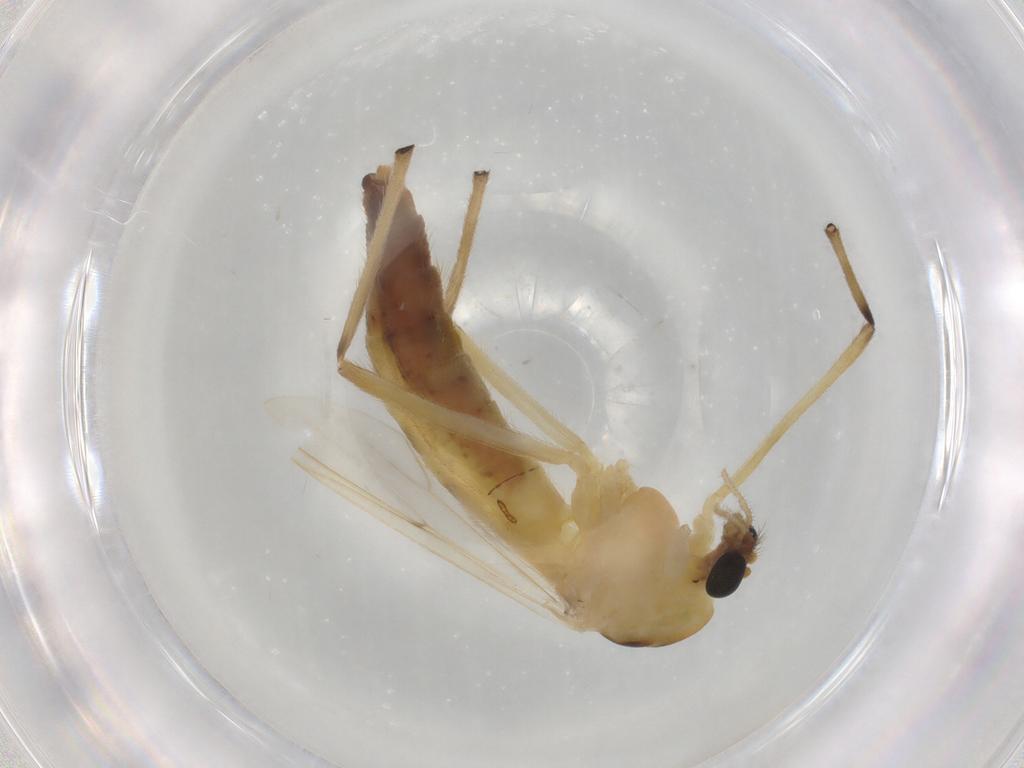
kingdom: Animalia
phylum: Arthropoda
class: Insecta
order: Diptera
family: Chironomidae
